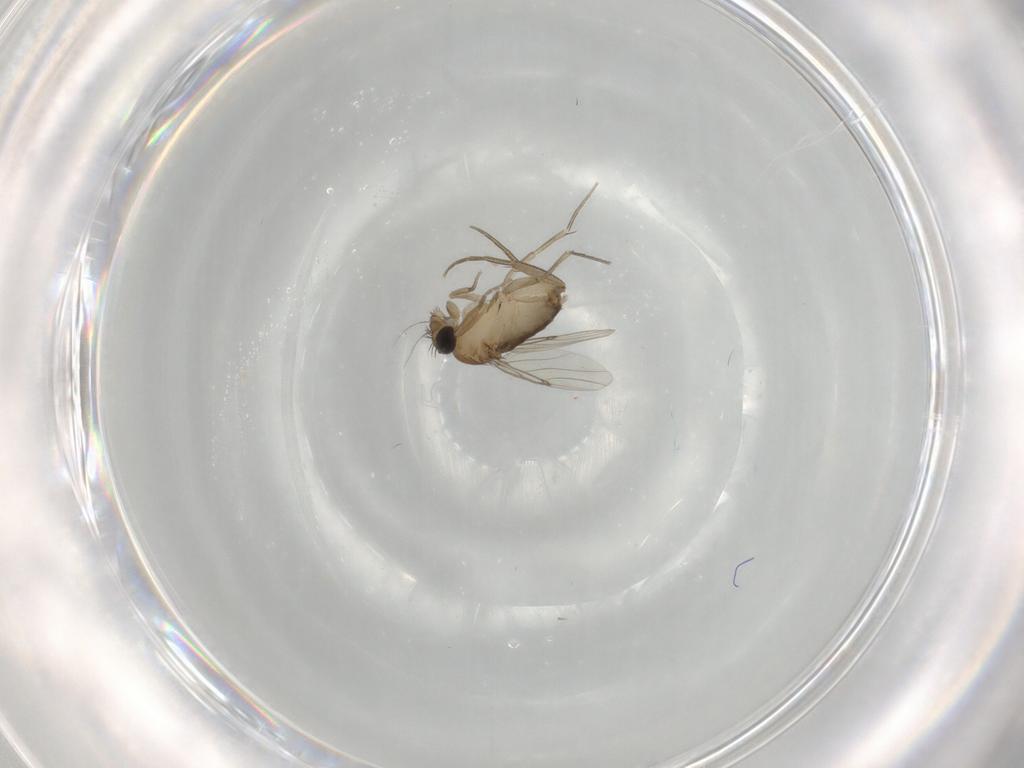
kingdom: Animalia
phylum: Arthropoda
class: Insecta
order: Diptera
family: Phoridae
